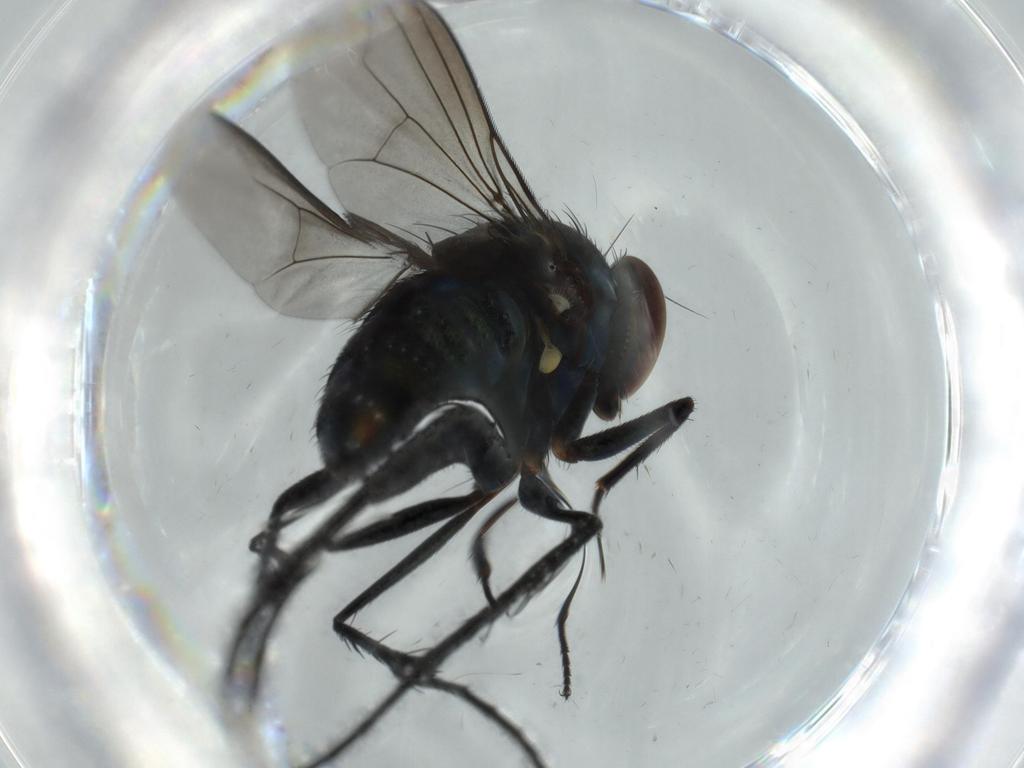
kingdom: Animalia
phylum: Arthropoda
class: Insecta
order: Diptera
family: Dolichopodidae
